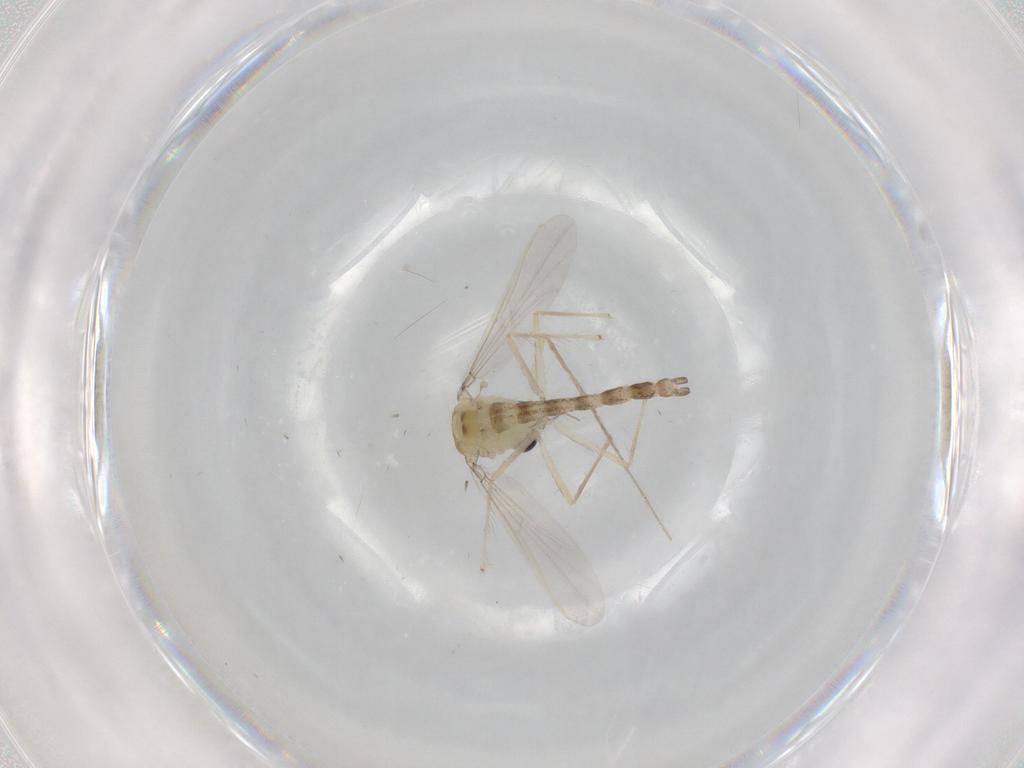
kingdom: Animalia
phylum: Arthropoda
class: Insecta
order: Diptera
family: Chironomidae
